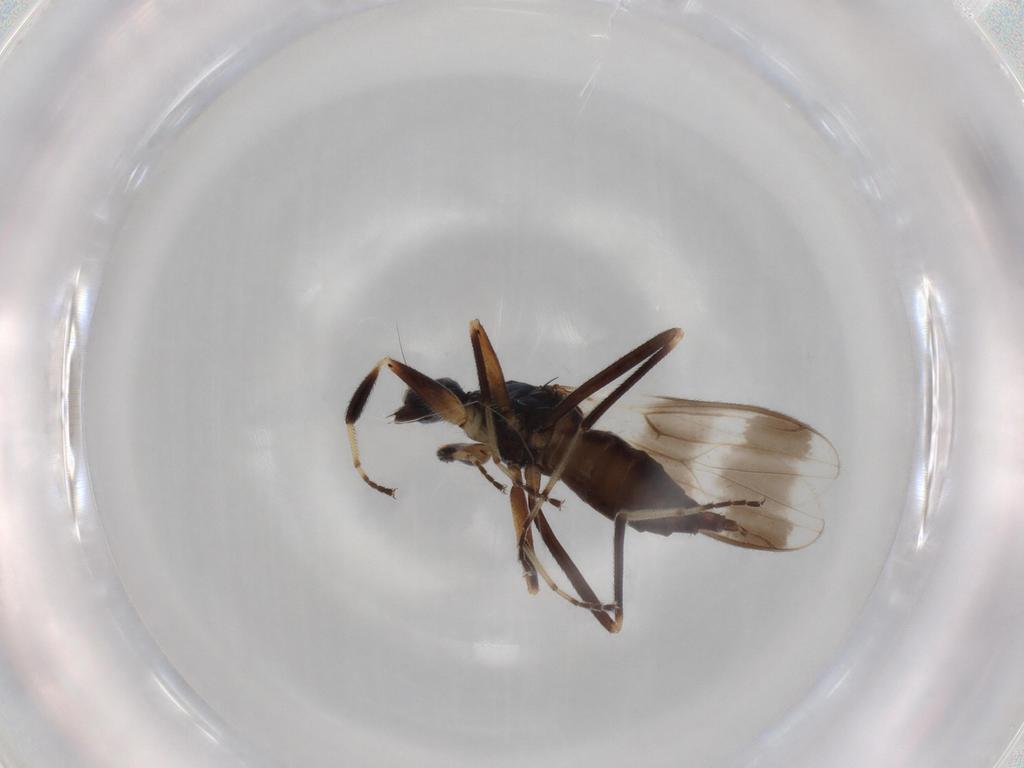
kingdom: Animalia
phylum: Arthropoda
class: Insecta
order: Diptera
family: Hybotidae
